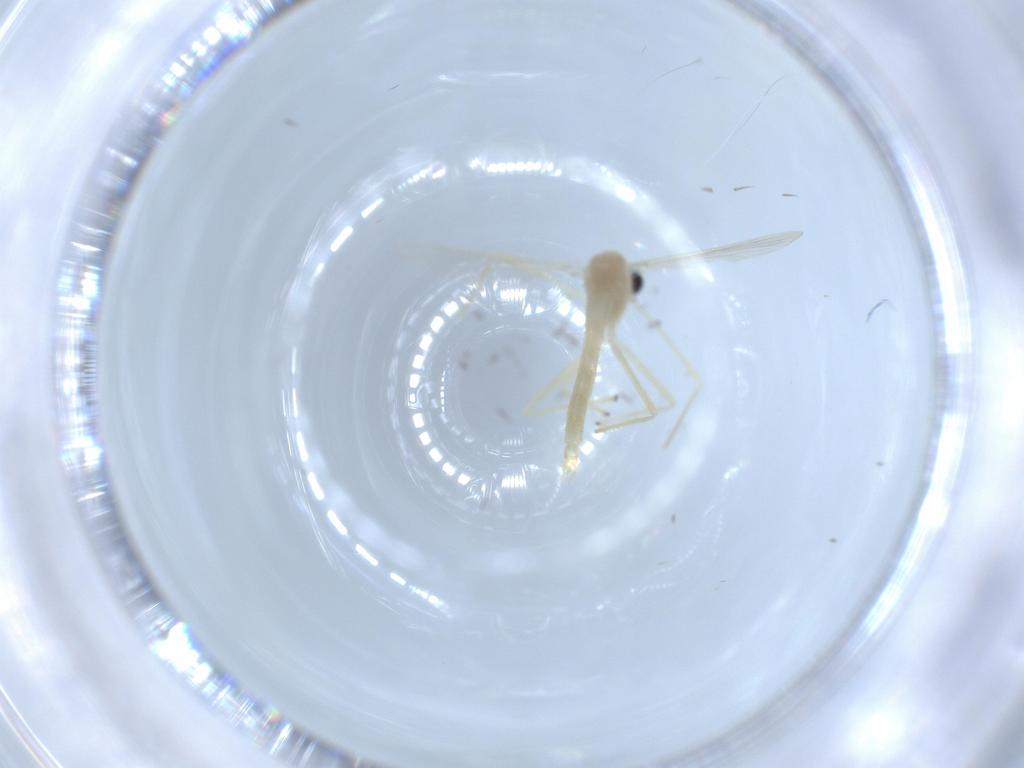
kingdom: Animalia
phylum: Arthropoda
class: Insecta
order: Diptera
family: Chironomidae
